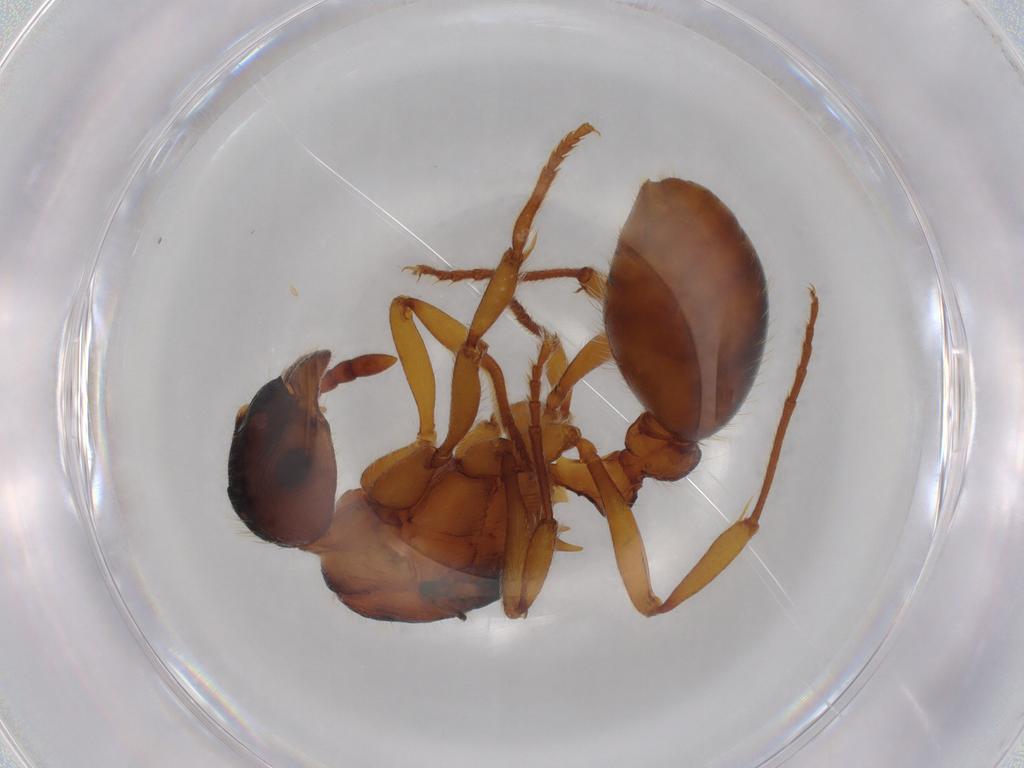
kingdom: Animalia
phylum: Arthropoda
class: Insecta
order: Hymenoptera
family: Formicidae
